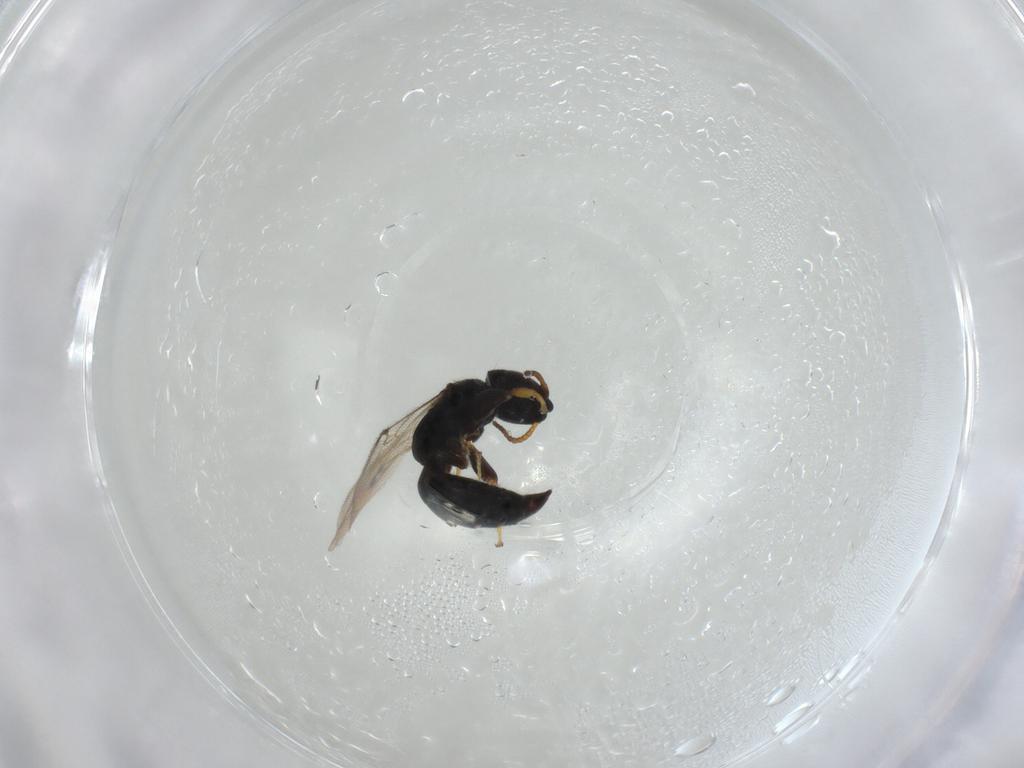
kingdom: Animalia
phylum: Arthropoda
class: Insecta
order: Hymenoptera
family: Bethylidae
